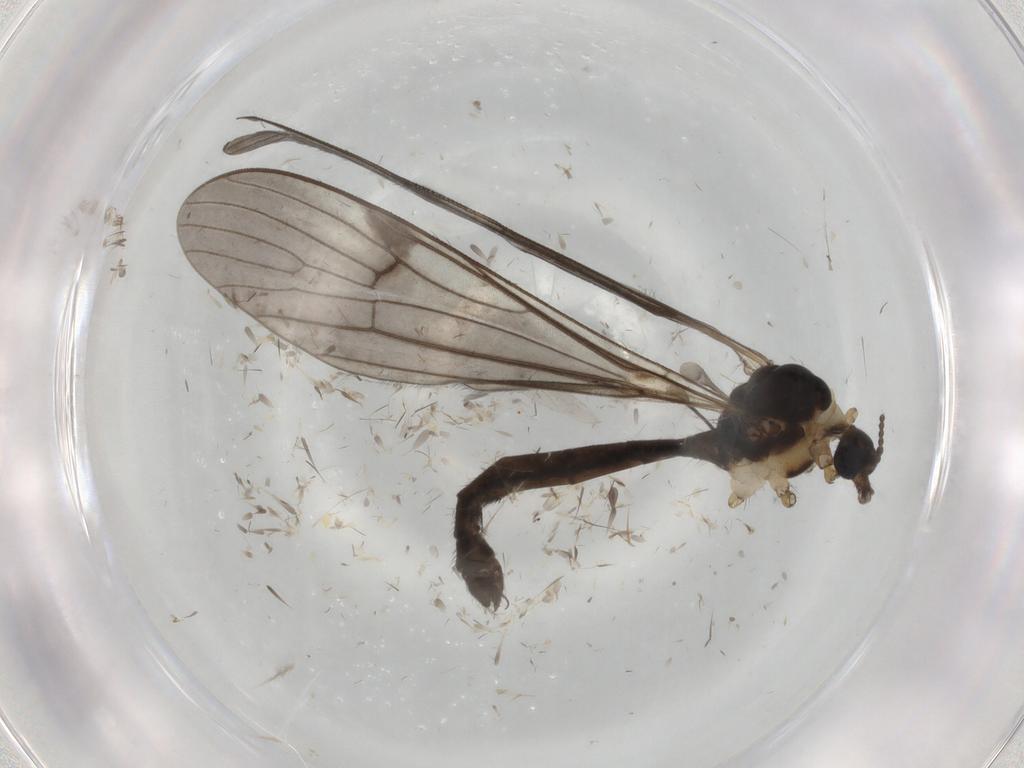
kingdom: Animalia
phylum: Arthropoda
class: Insecta
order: Diptera
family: Limoniidae
